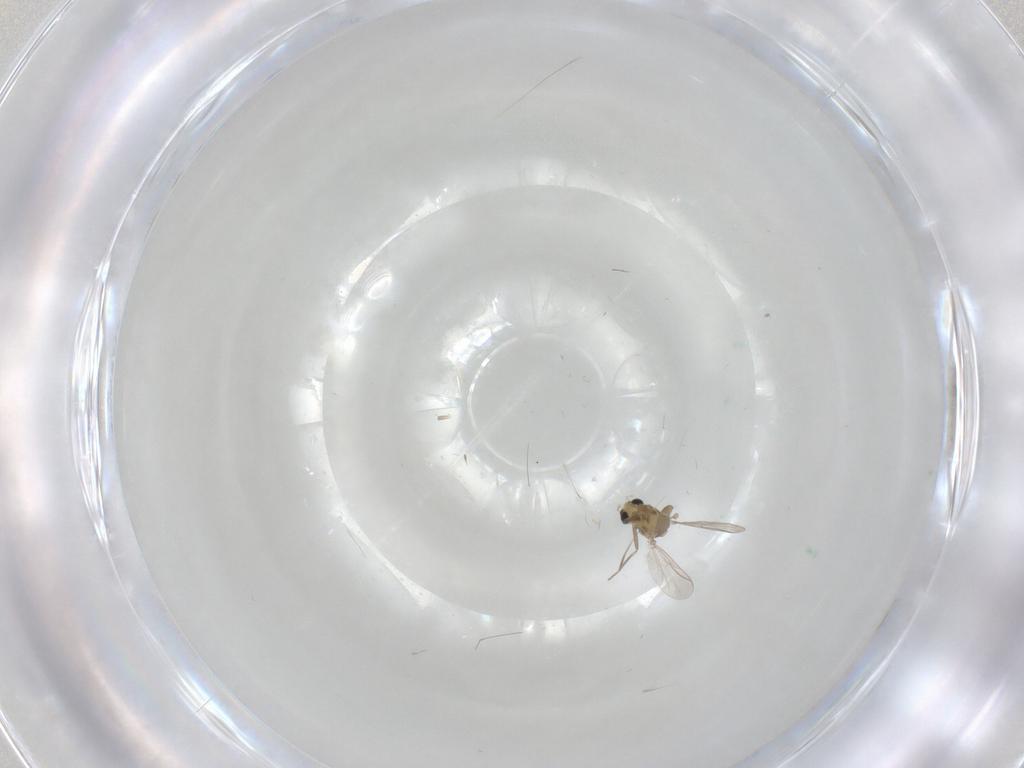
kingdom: Animalia
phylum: Arthropoda
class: Insecta
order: Diptera
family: Chironomidae
